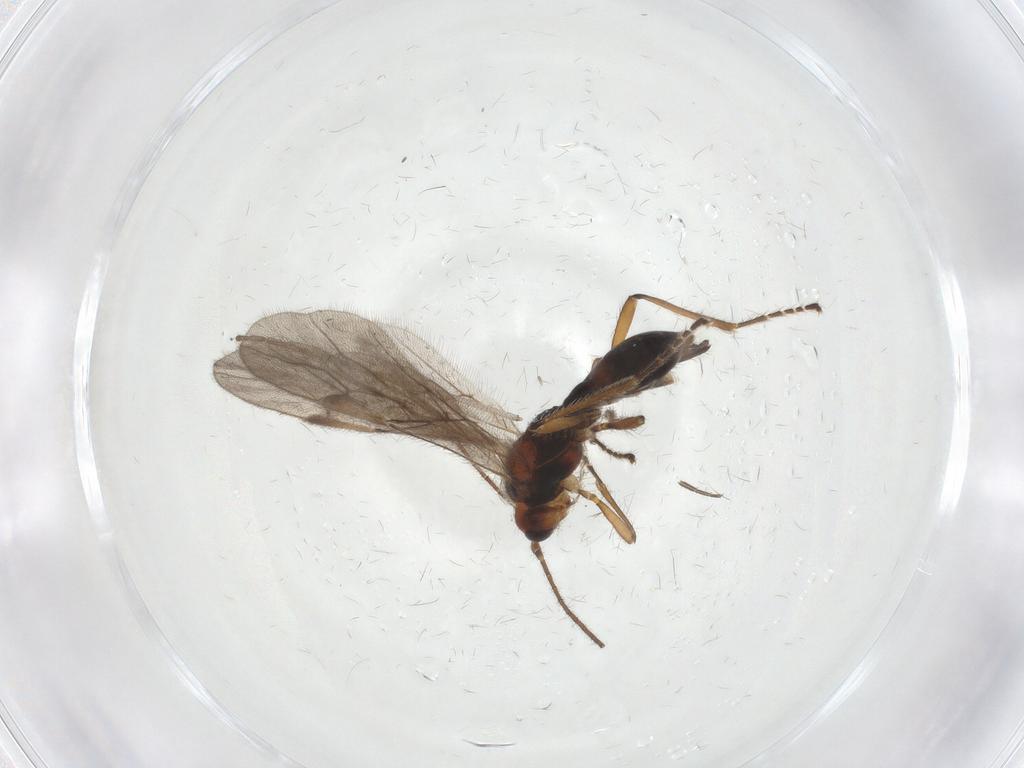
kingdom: Animalia
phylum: Arthropoda
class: Insecta
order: Hymenoptera
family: Braconidae
